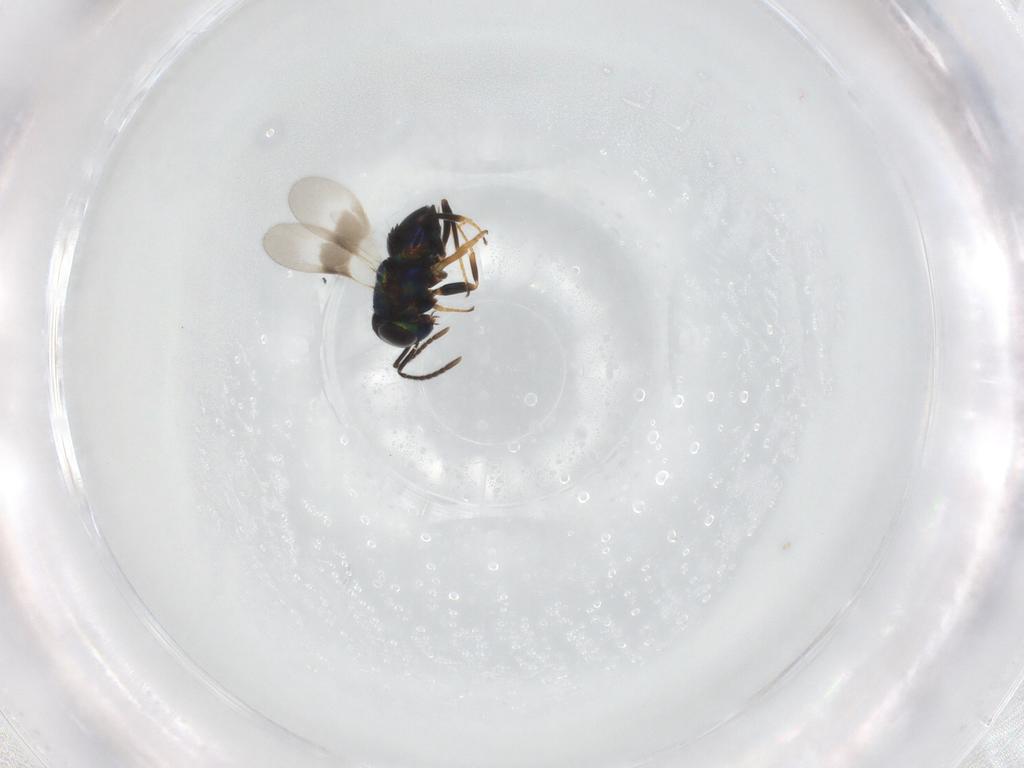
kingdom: Animalia
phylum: Arthropoda
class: Insecta
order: Hymenoptera
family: Encyrtidae
